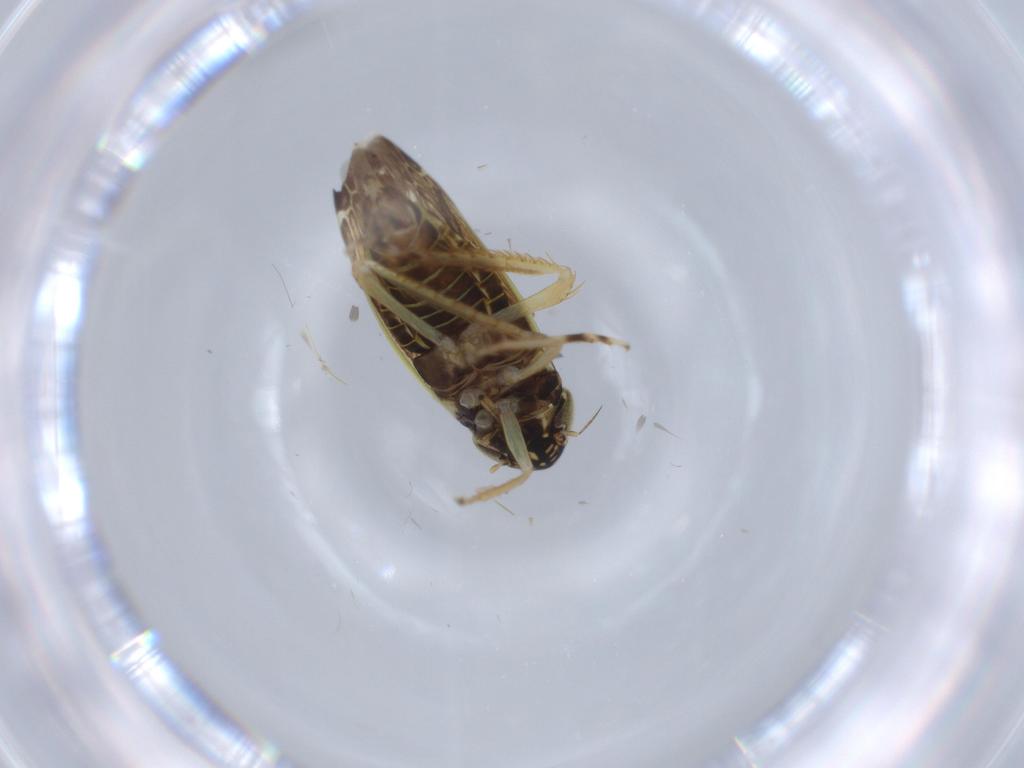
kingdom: Animalia
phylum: Arthropoda
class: Insecta
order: Hemiptera
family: Cicadellidae
